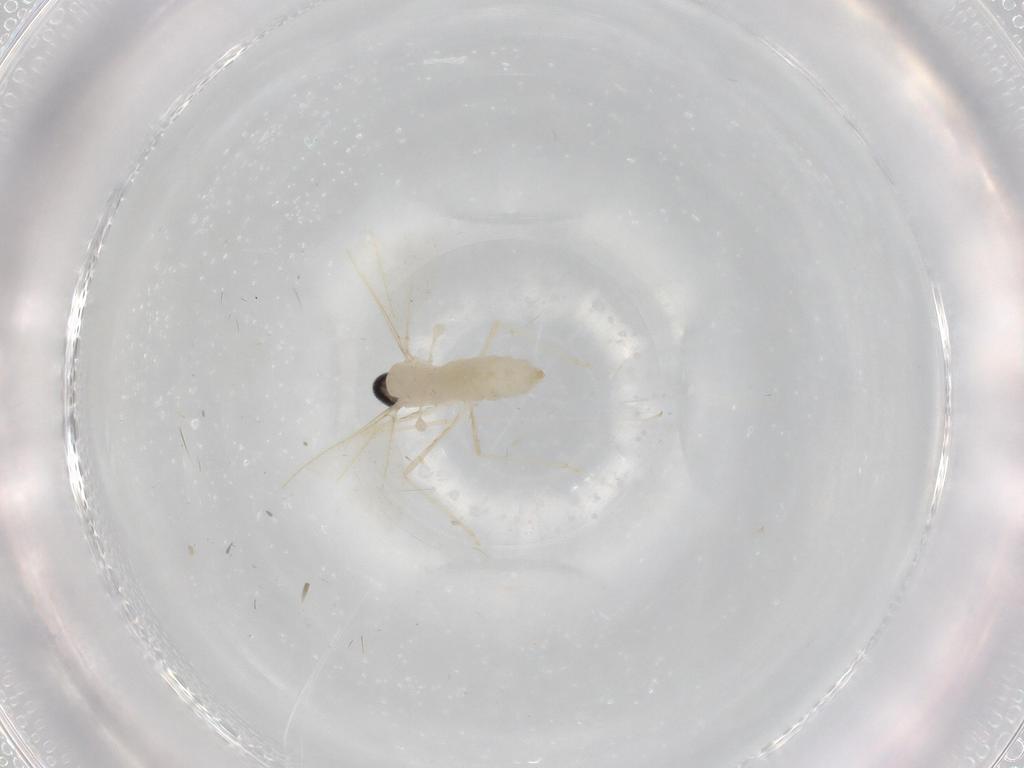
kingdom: Animalia
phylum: Arthropoda
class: Insecta
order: Diptera
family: Cecidomyiidae
